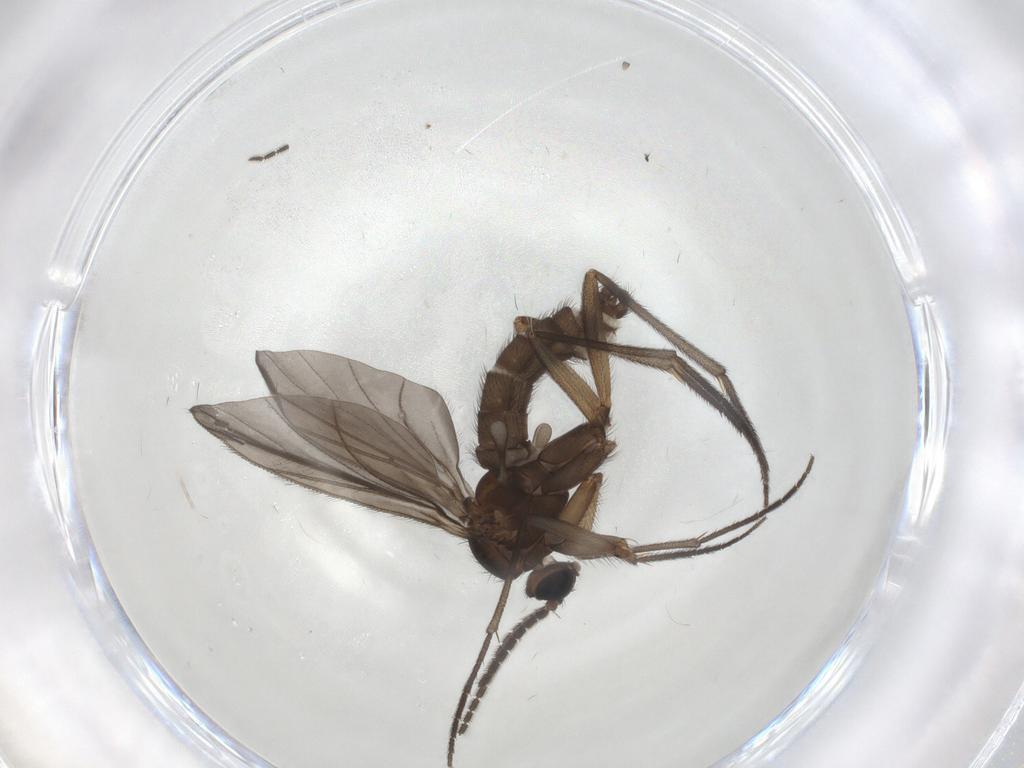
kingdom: Animalia
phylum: Arthropoda
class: Insecta
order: Diptera
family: Sciaridae
